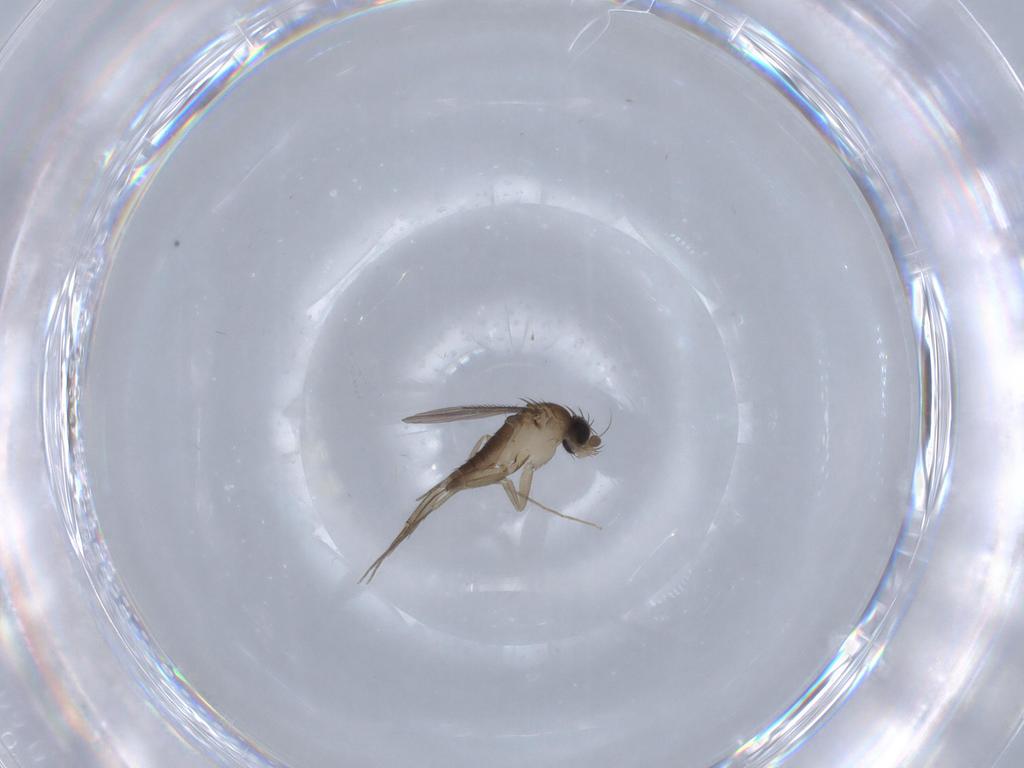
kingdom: Animalia
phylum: Arthropoda
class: Insecta
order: Diptera
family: Phoridae
